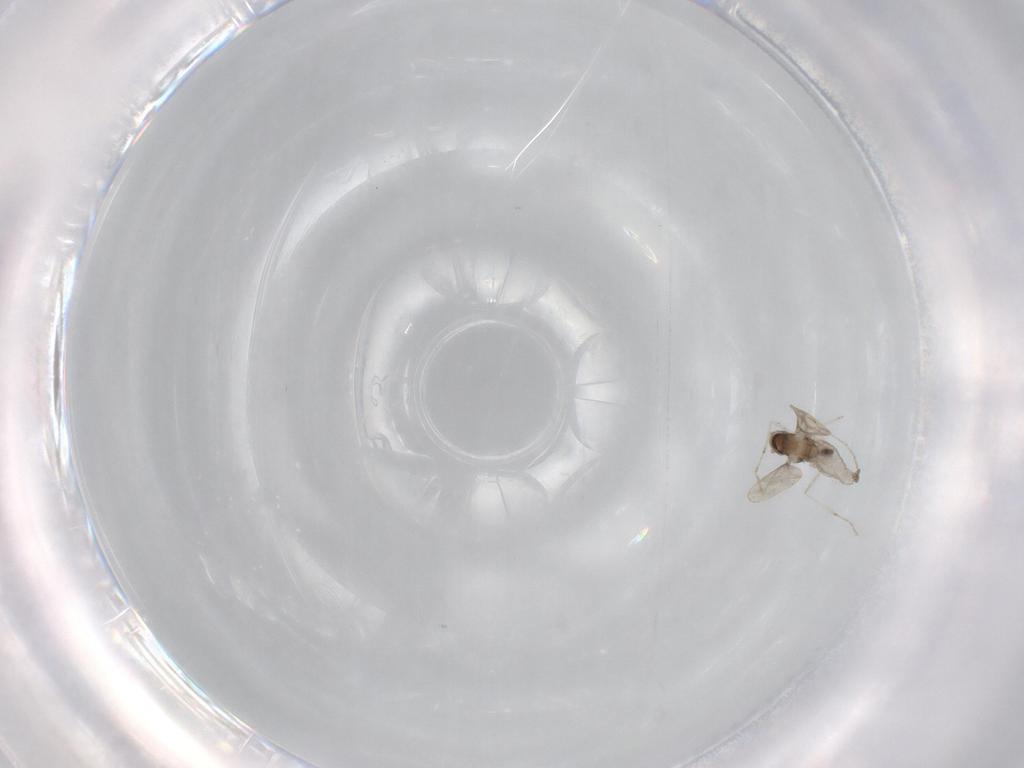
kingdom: Animalia
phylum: Arthropoda
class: Insecta
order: Diptera
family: Cecidomyiidae
